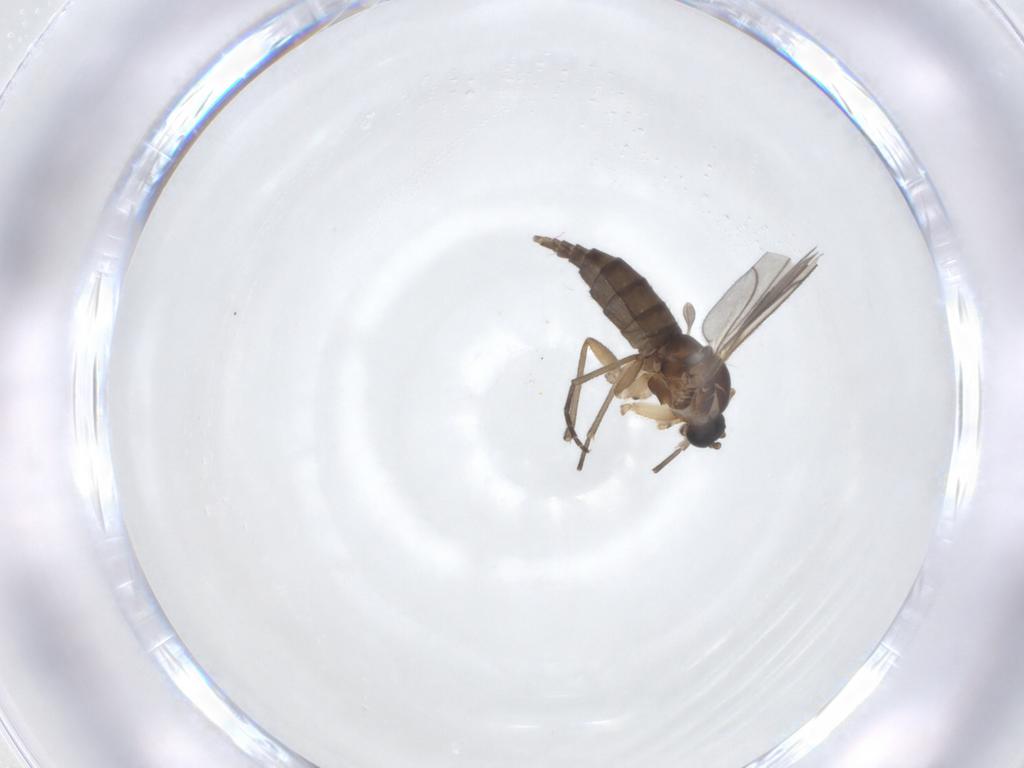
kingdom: Animalia
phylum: Arthropoda
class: Insecta
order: Diptera
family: Sciaridae
